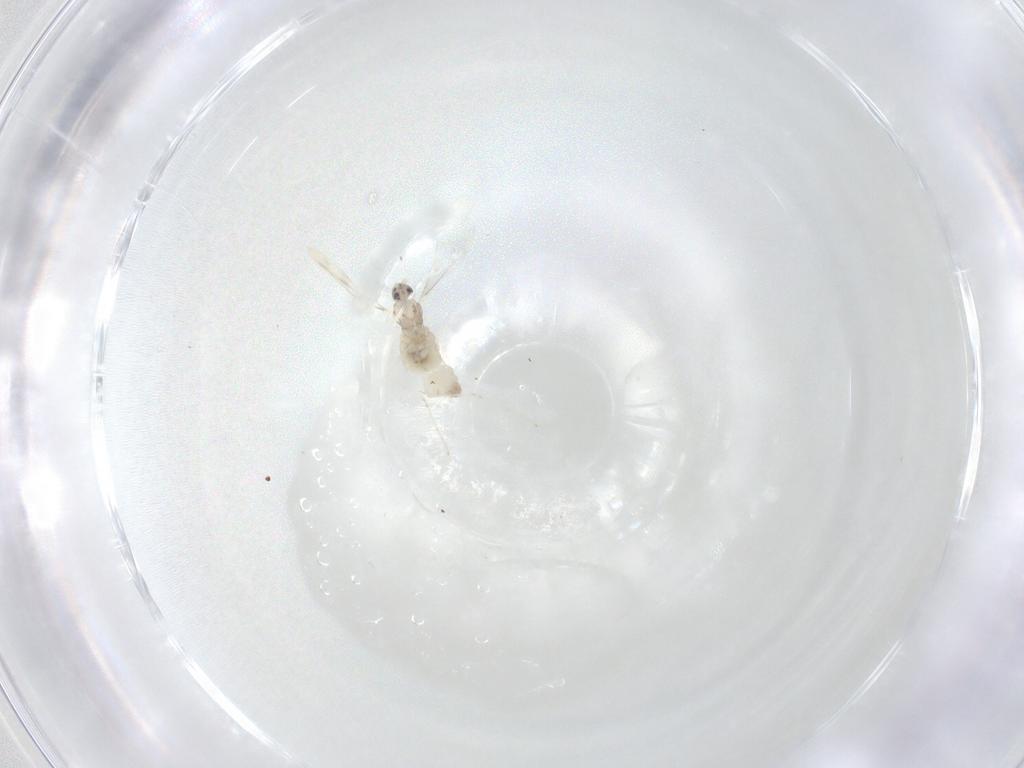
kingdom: Animalia
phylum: Arthropoda
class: Insecta
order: Diptera
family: Cecidomyiidae
